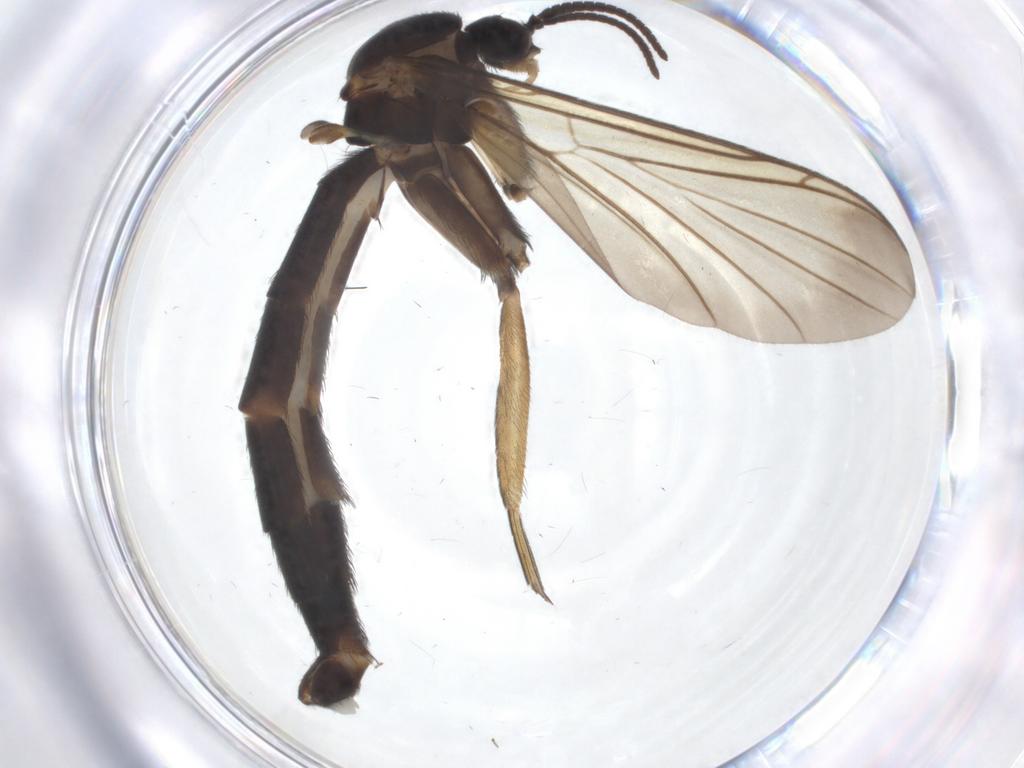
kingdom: Animalia
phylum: Arthropoda
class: Insecta
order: Diptera
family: Keroplatidae
